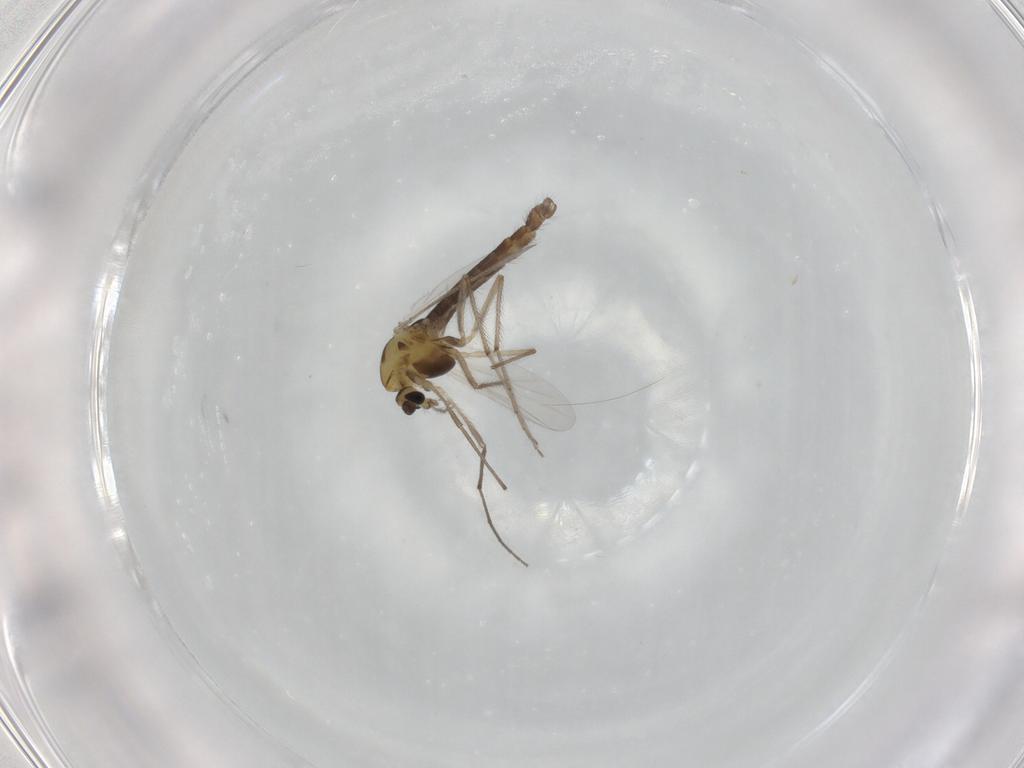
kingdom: Animalia
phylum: Arthropoda
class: Insecta
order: Diptera
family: Chironomidae
